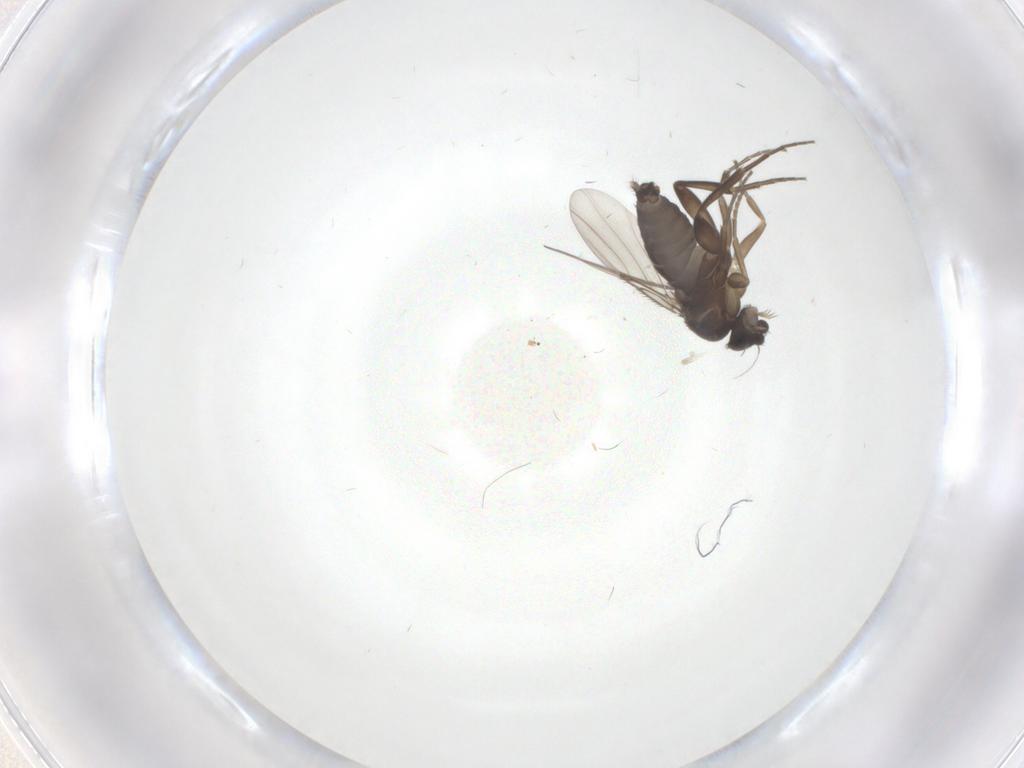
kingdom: Animalia
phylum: Arthropoda
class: Insecta
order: Diptera
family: Phoridae
